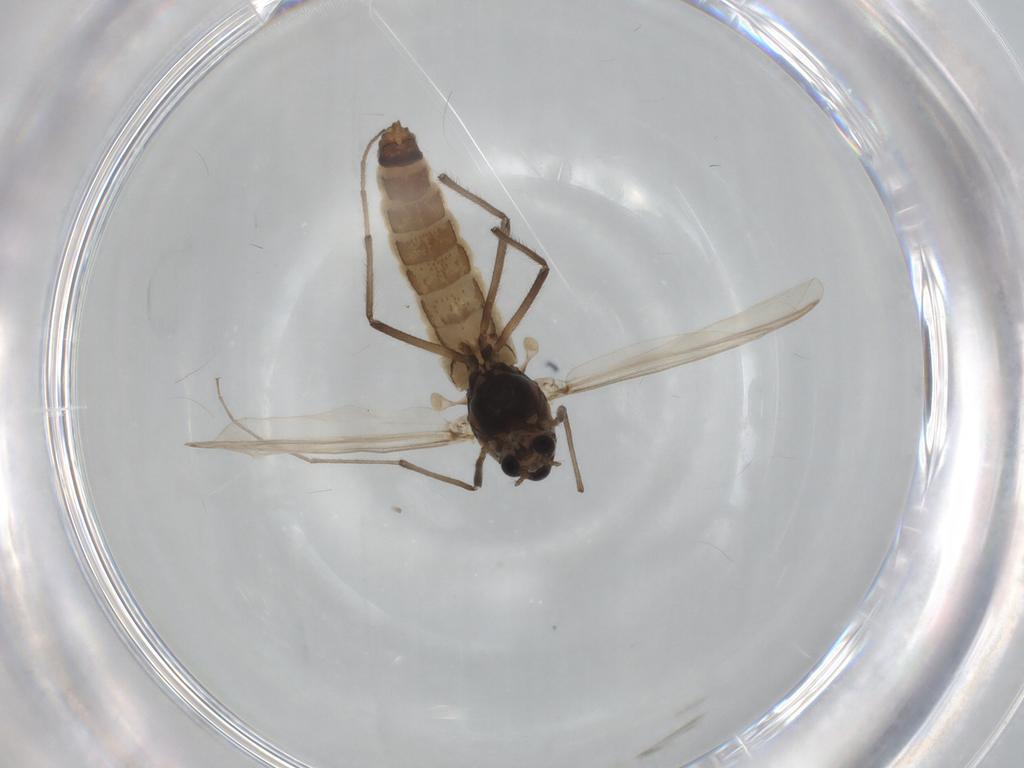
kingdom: Animalia
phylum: Arthropoda
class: Insecta
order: Diptera
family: Chironomidae
